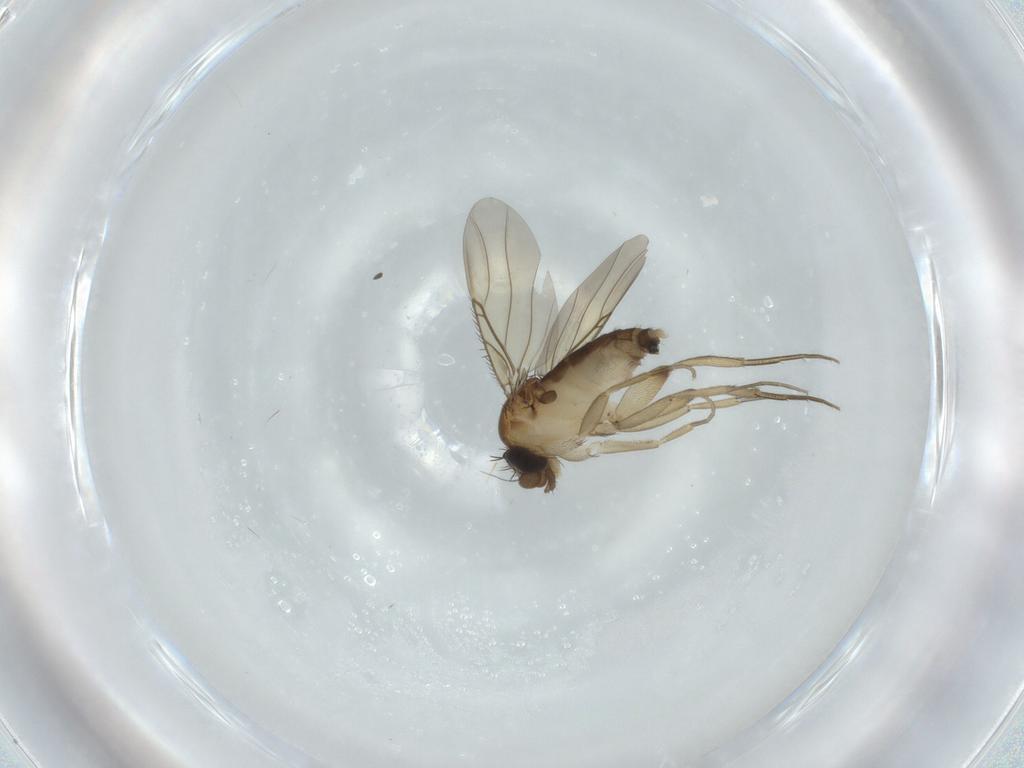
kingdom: Animalia
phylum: Arthropoda
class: Insecta
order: Diptera
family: Phoridae
